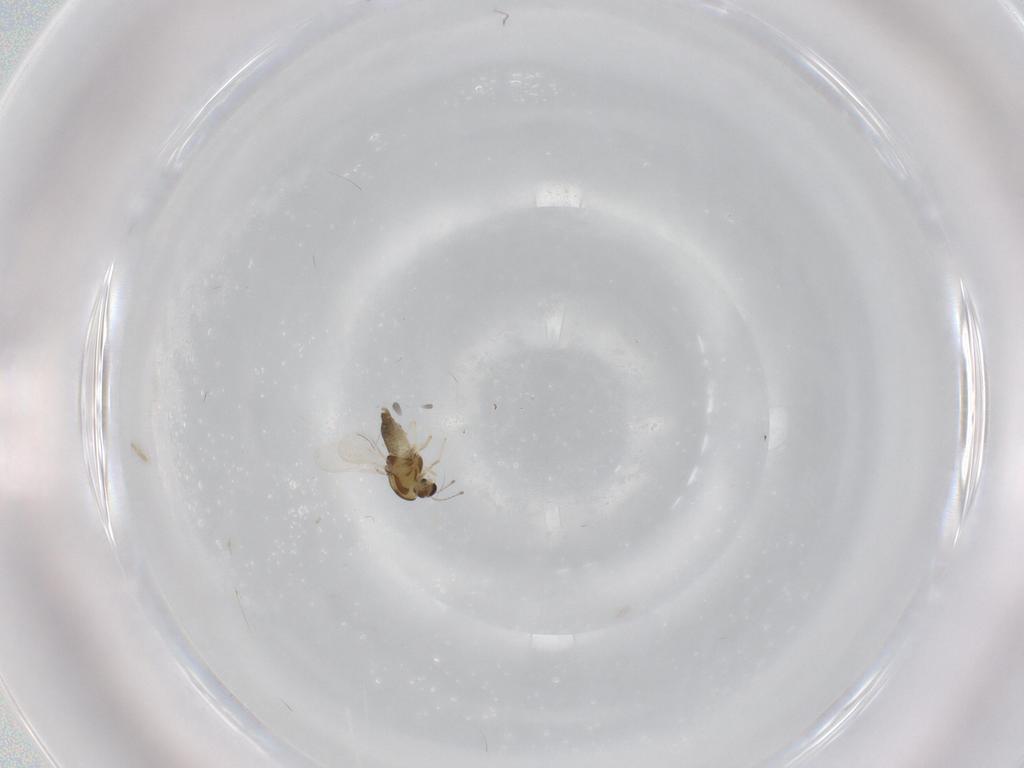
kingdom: Animalia
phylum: Arthropoda
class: Insecta
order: Diptera
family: Chironomidae
